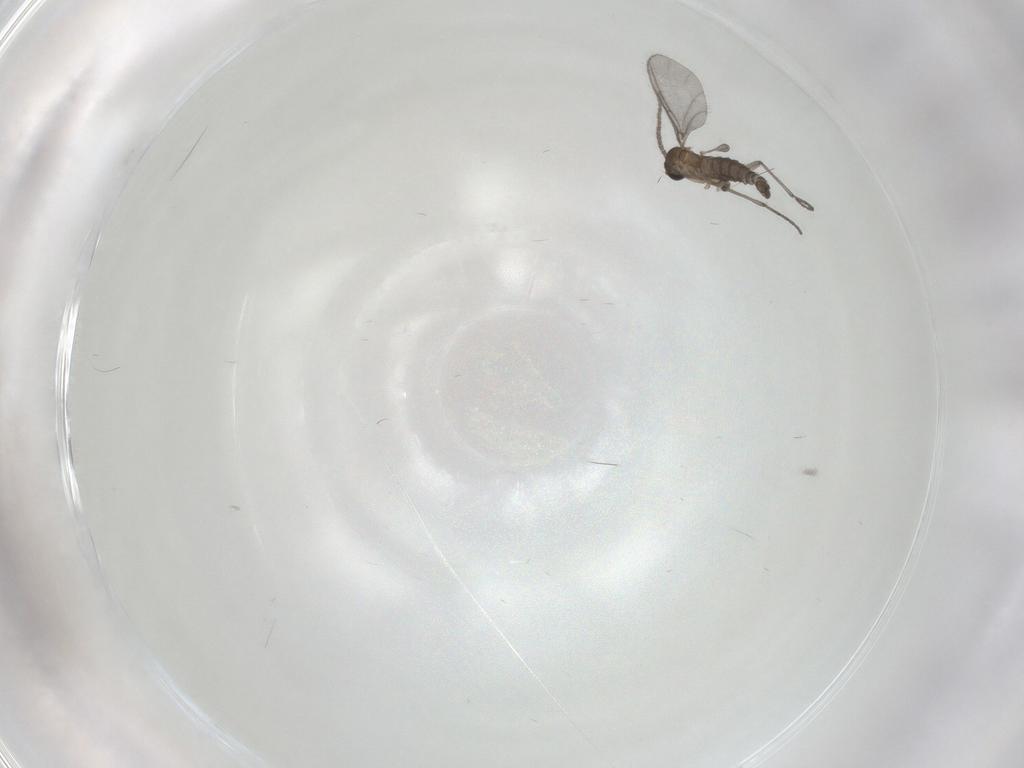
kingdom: Animalia
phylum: Arthropoda
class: Insecta
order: Diptera
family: Sciaridae
